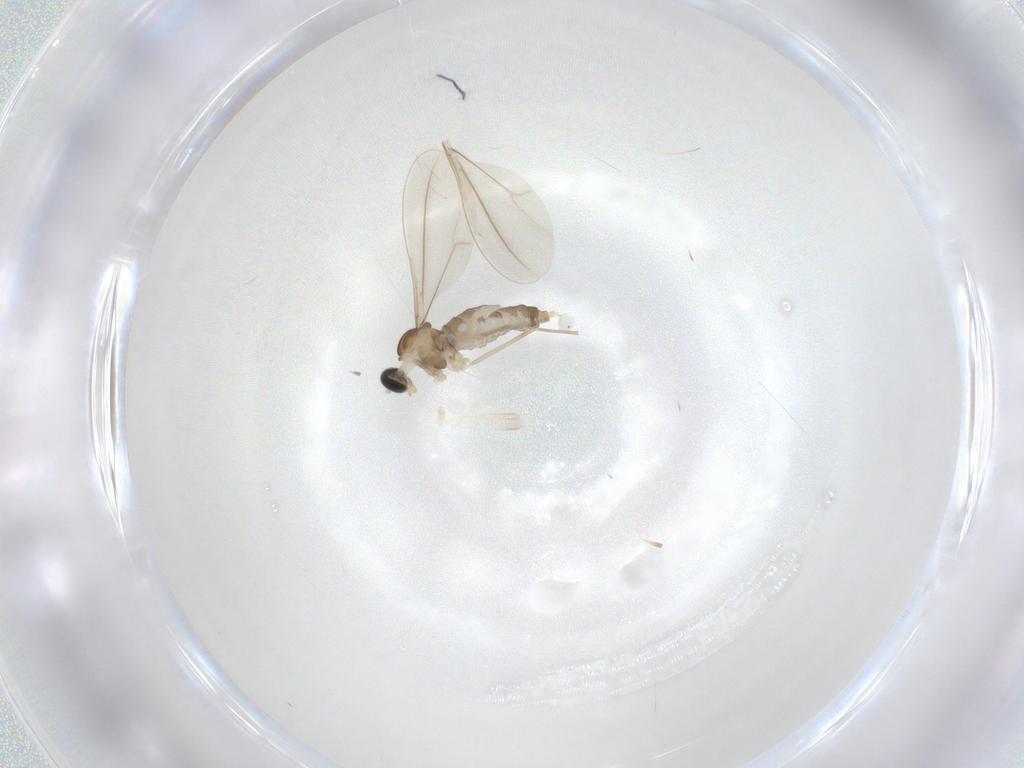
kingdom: Animalia
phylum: Arthropoda
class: Insecta
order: Diptera
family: Cecidomyiidae
